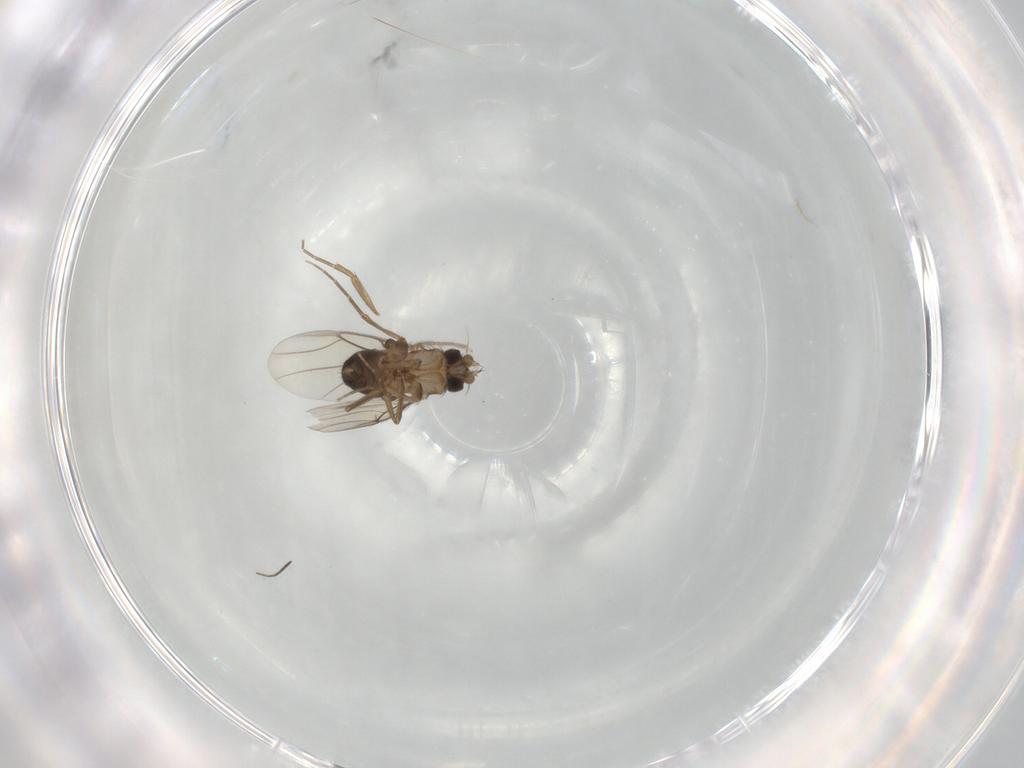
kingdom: Animalia
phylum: Arthropoda
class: Insecta
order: Diptera
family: Chironomidae
